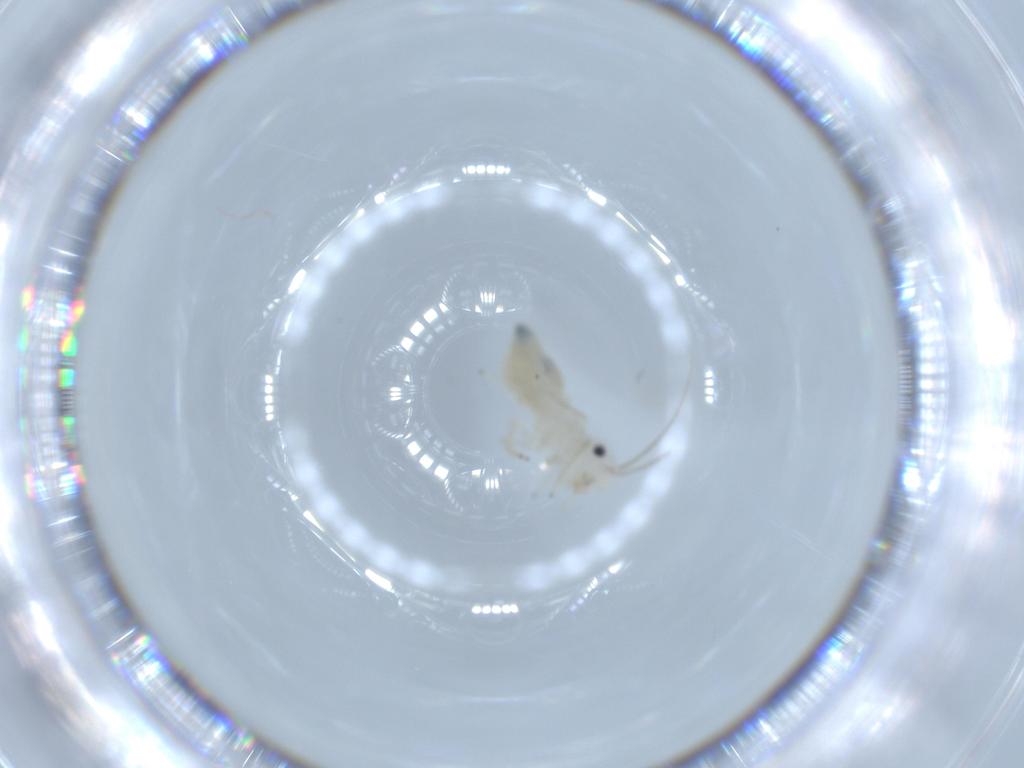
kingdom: Animalia
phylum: Arthropoda
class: Insecta
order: Psocodea
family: Caeciliusidae
